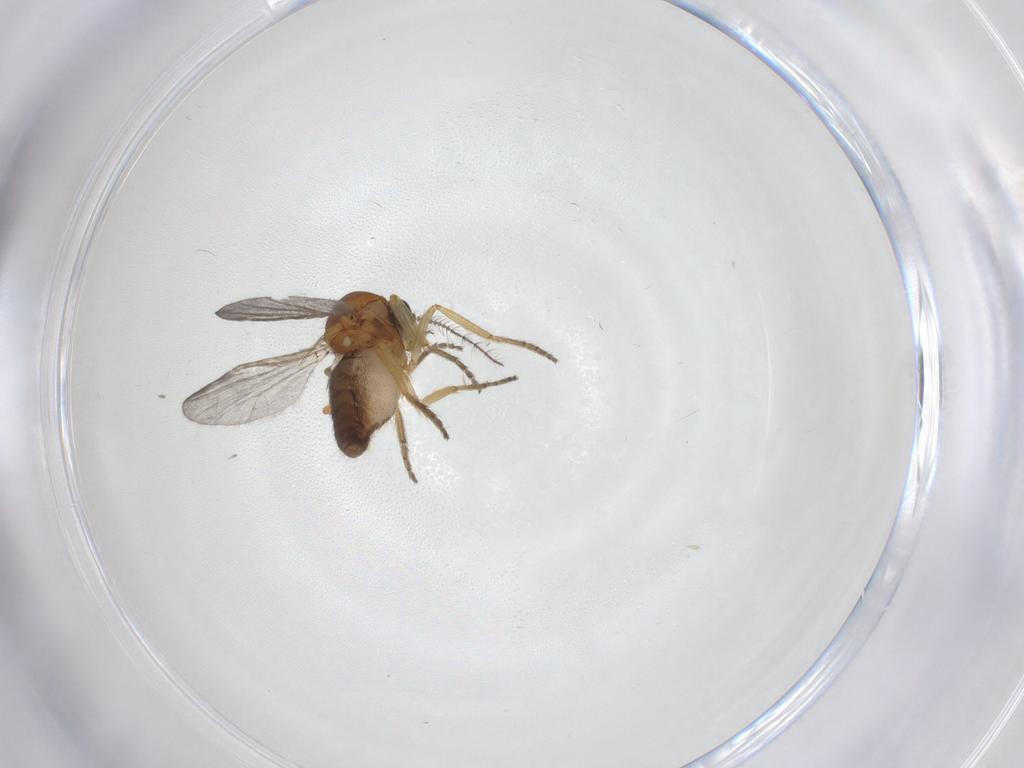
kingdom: Animalia
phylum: Arthropoda
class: Insecta
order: Diptera
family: Ceratopogonidae
